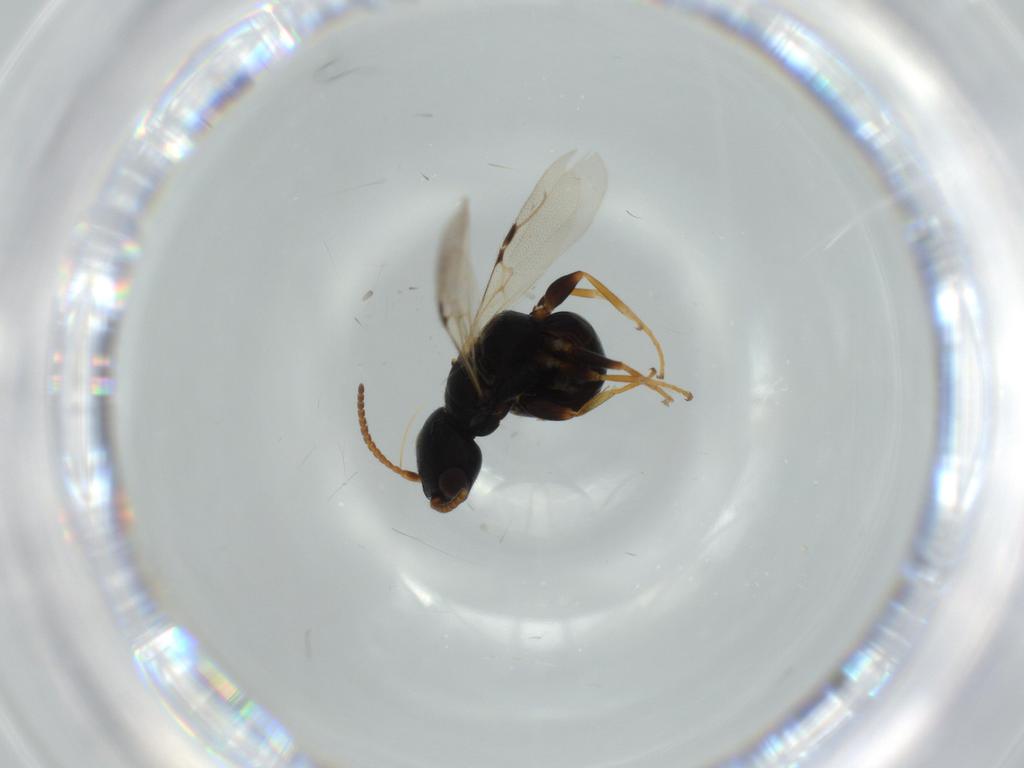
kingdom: Animalia
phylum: Arthropoda
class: Insecta
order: Hymenoptera
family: Bethylidae
